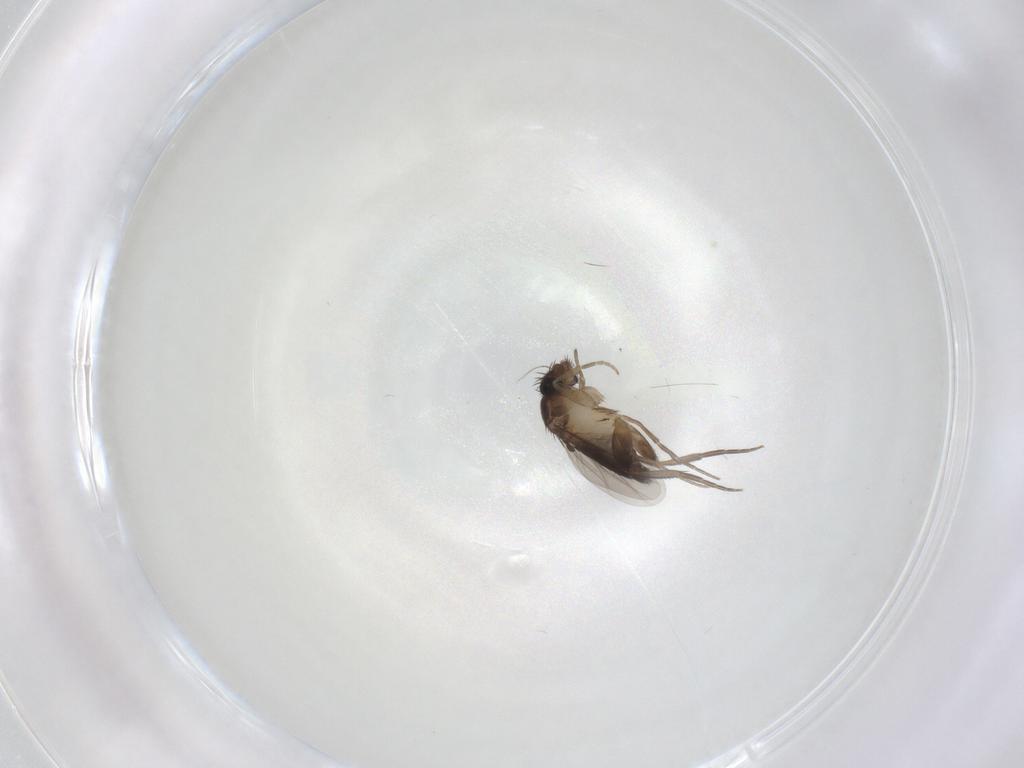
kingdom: Animalia
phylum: Arthropoda
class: Insecta
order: Diptera
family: Phoridae
